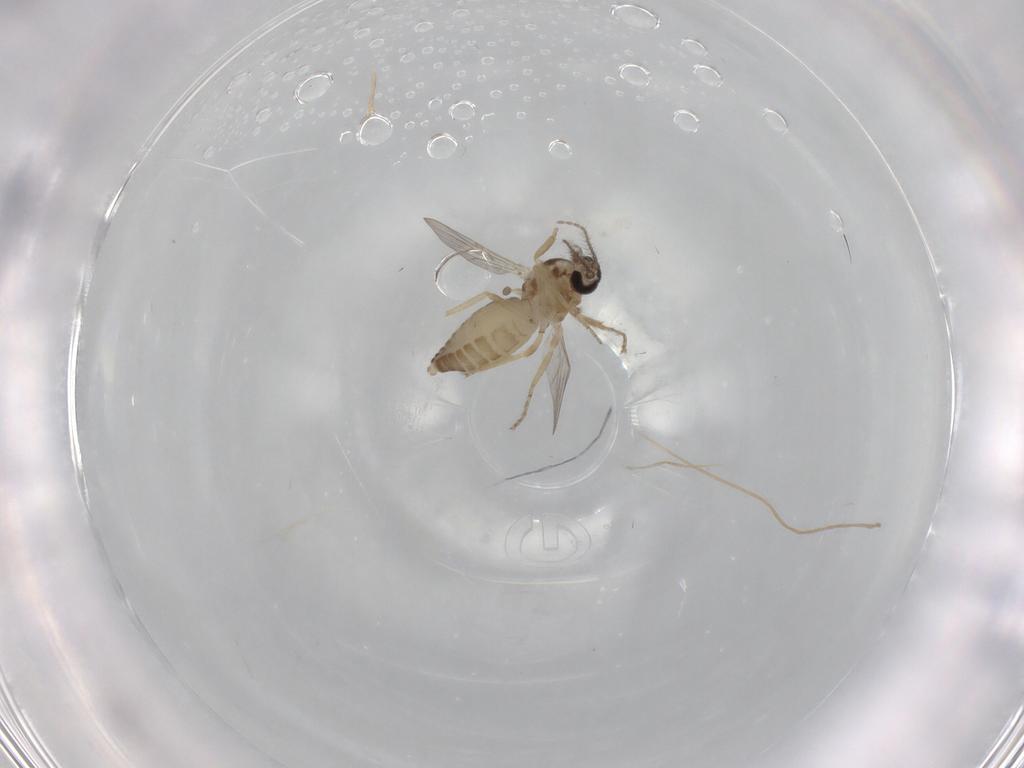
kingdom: Animalia
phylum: Arthropoda
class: Insecta
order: Diptera
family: Ceratopogonidae
